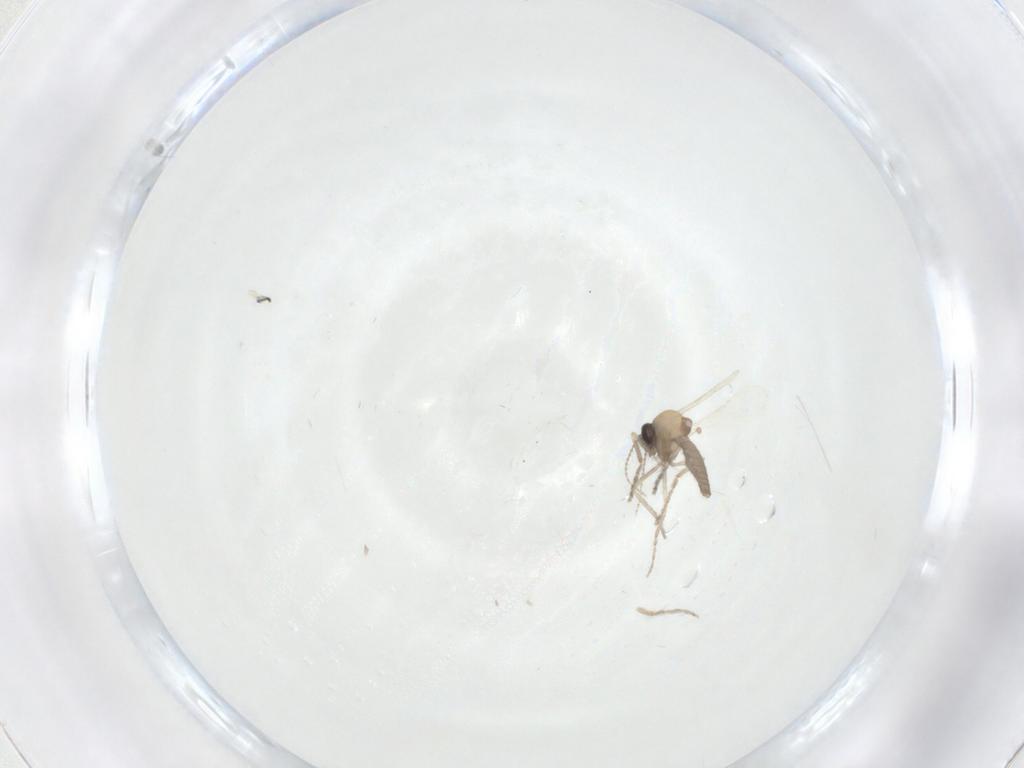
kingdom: Animalia
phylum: Arthropoda
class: Insecta
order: Diptera
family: Ceratopogonidae
